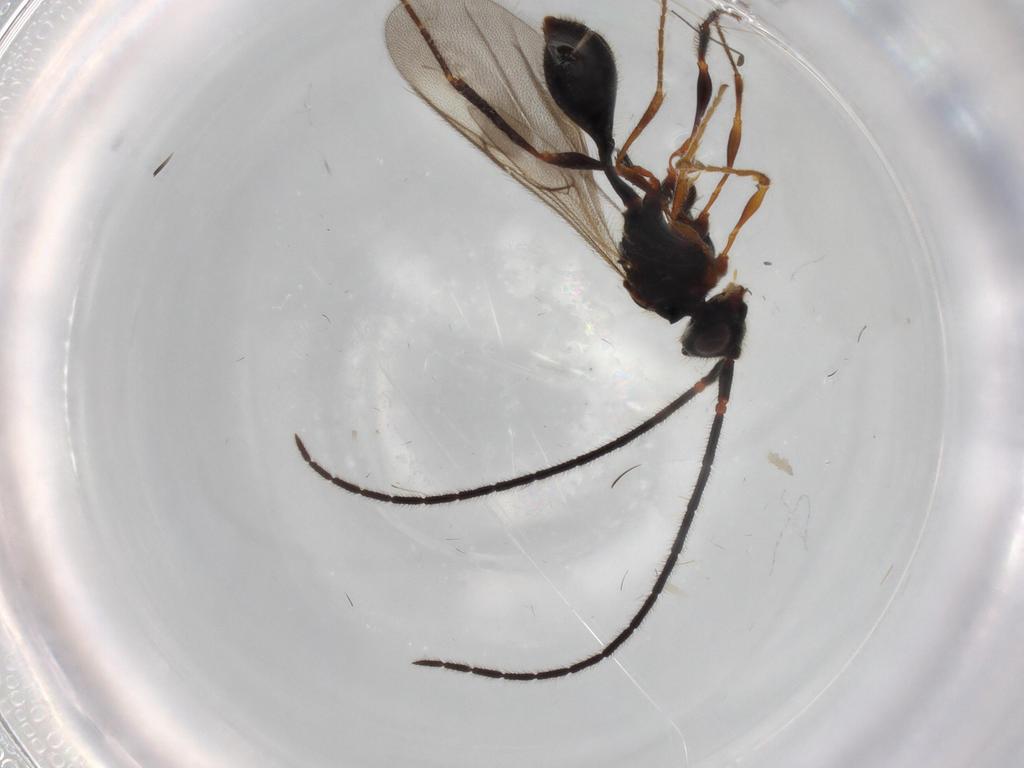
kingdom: Animalia
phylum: Arthropoda
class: Insecta
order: Hymenoptera
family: Diapriidae
